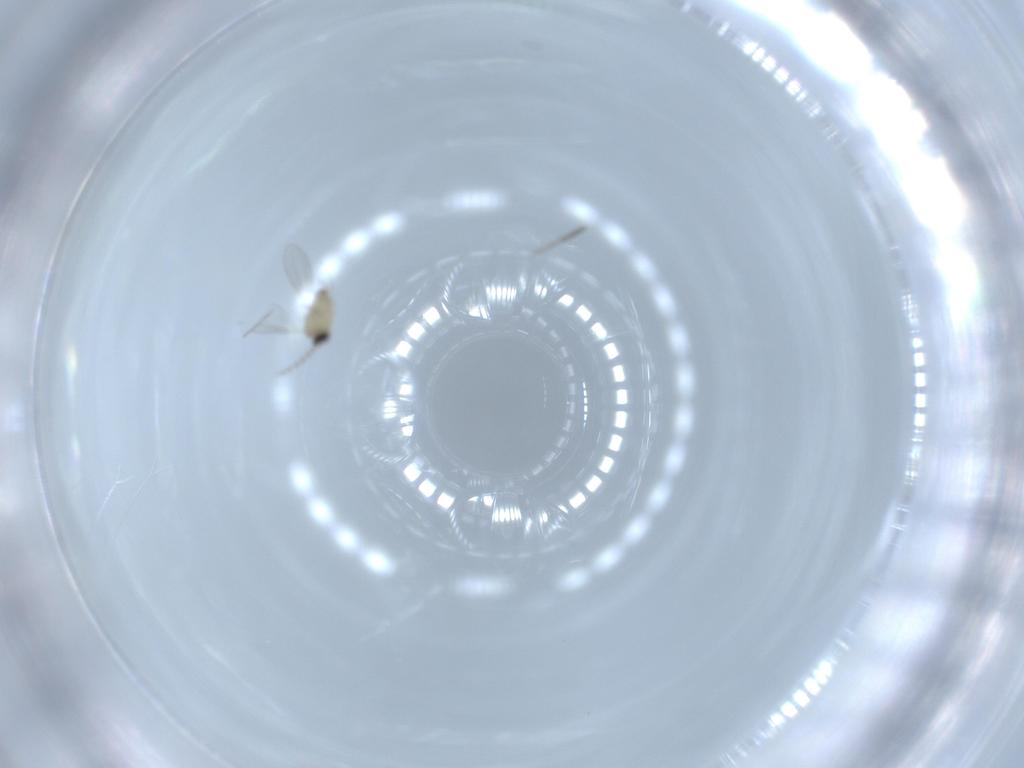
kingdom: Animalia
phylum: Arthropoda
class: Insecta
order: Diptera
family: Cecidomyiidae
